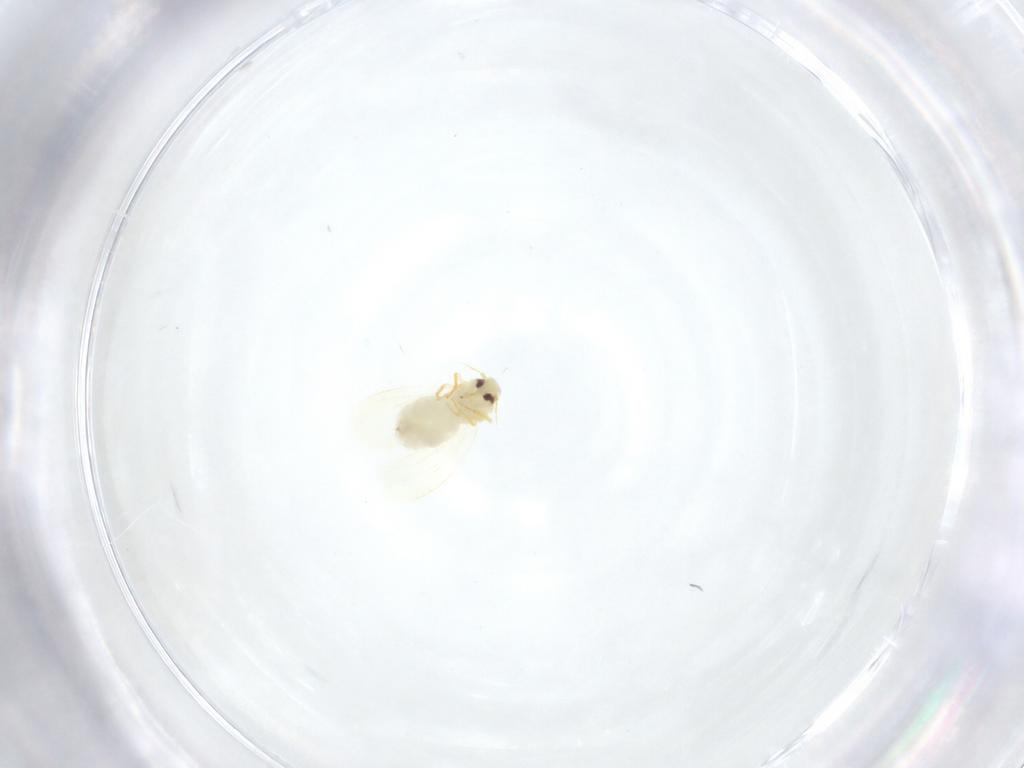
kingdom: Animalia
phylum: Arthropoda
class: Insecta
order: Hemiptera
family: Aleyrodidae
